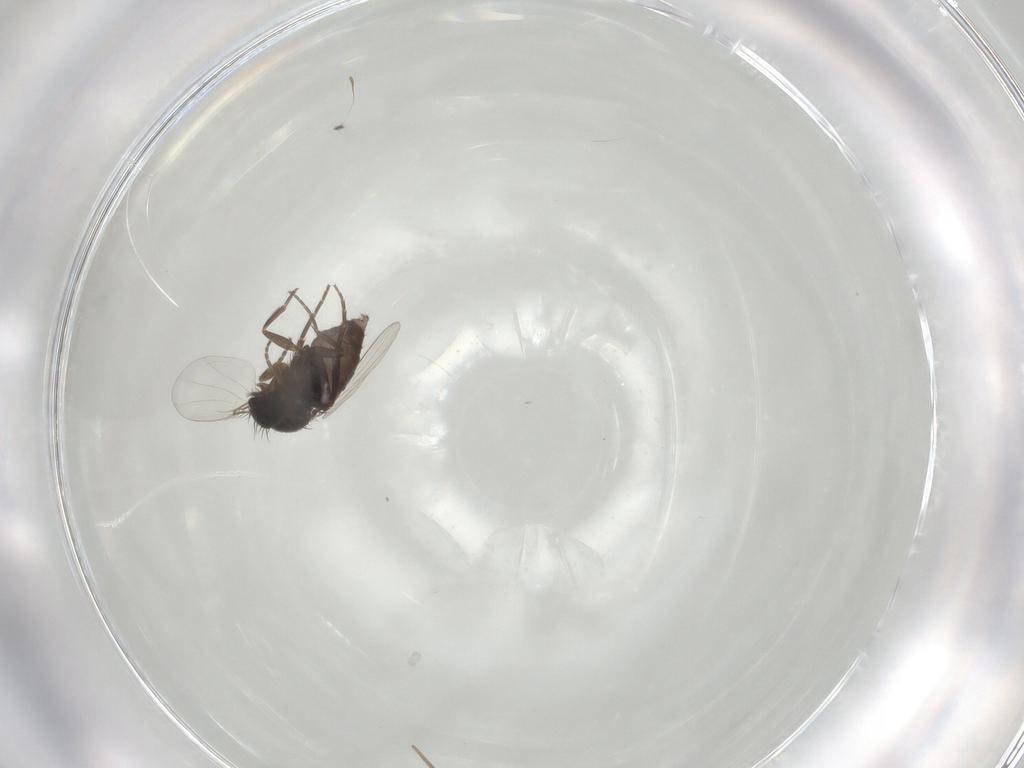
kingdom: Animalia
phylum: Arthropoda
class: Insecta
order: Diptera
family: Phoridae
